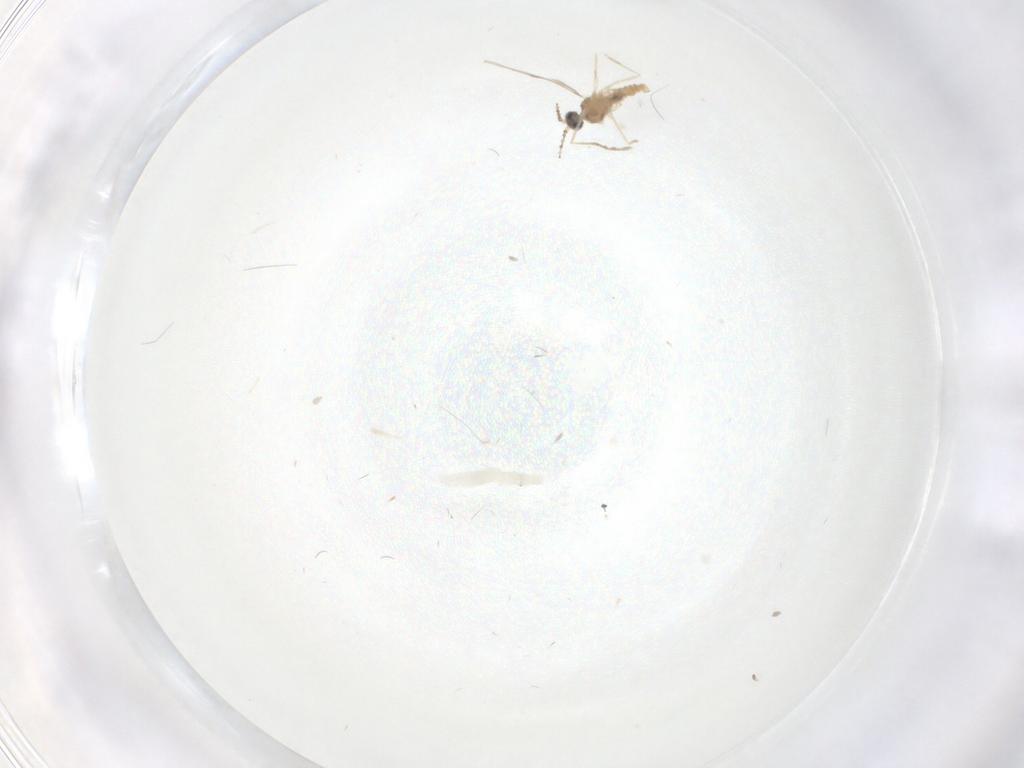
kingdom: Animalia
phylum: Arthropoda
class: Insecta
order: Diptera
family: Cecidomyiidae
